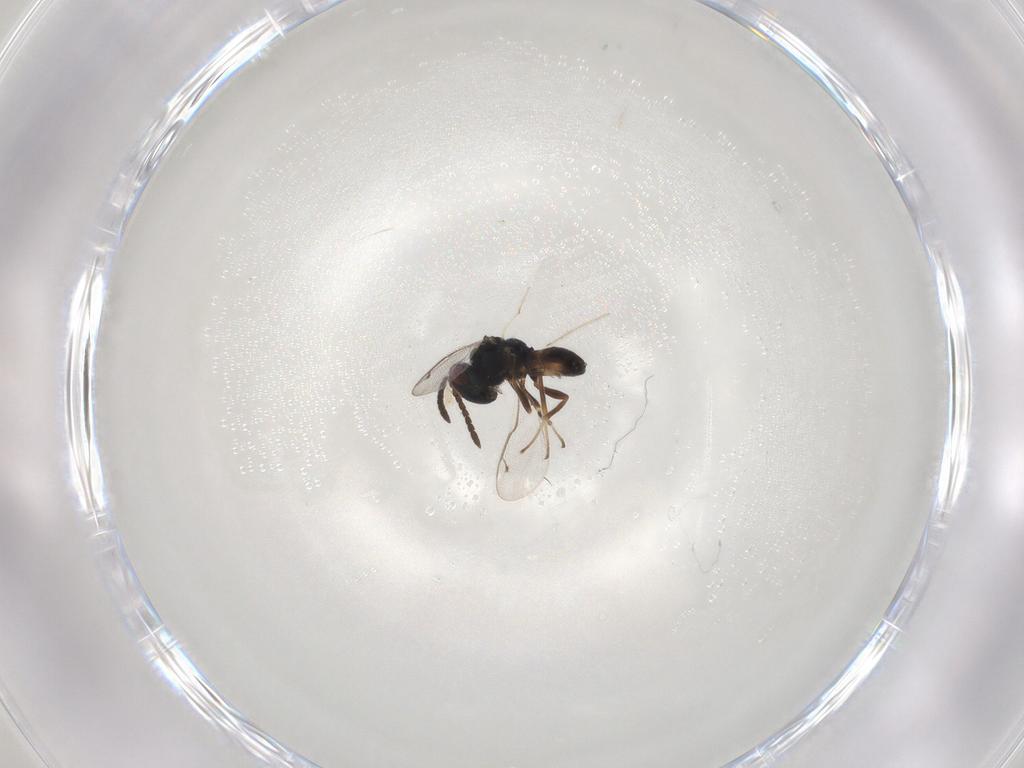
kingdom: Animalia
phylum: Arthropoda
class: Insecta
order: Hymenoptera
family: Pteromalidae
